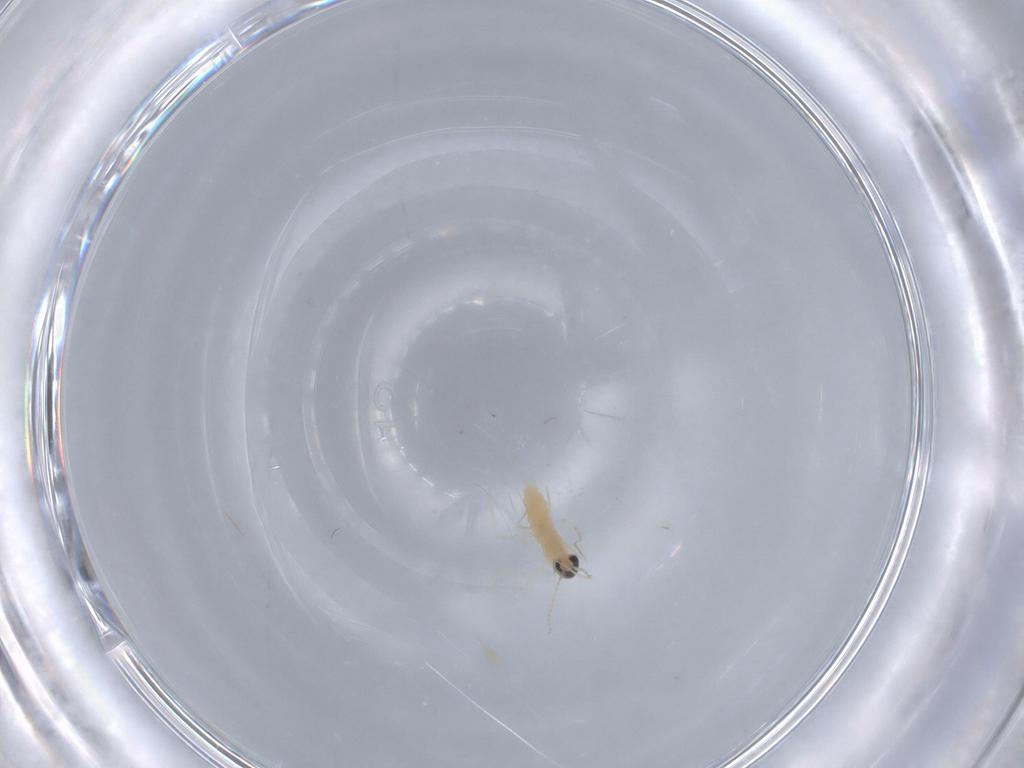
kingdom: Animalia
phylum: Arthropoda
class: Insecta
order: Diptera
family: Cecidomyiidae
